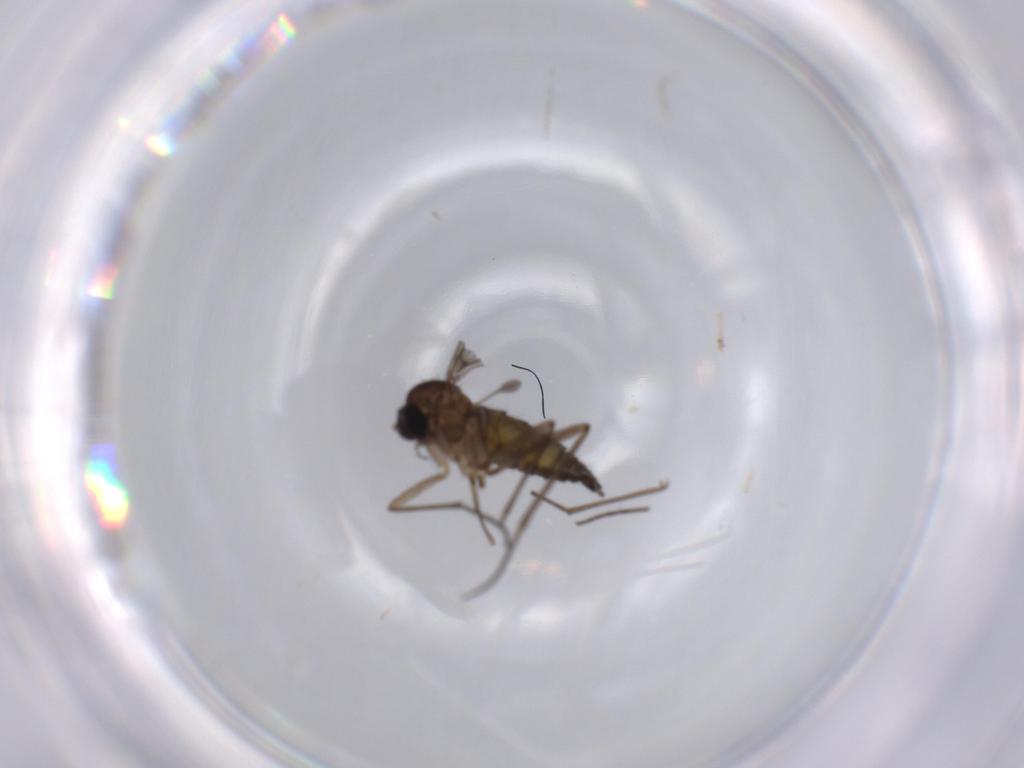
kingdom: Animalia
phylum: Arthropoda
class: Insecta
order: Diptera
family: Sciaridae
